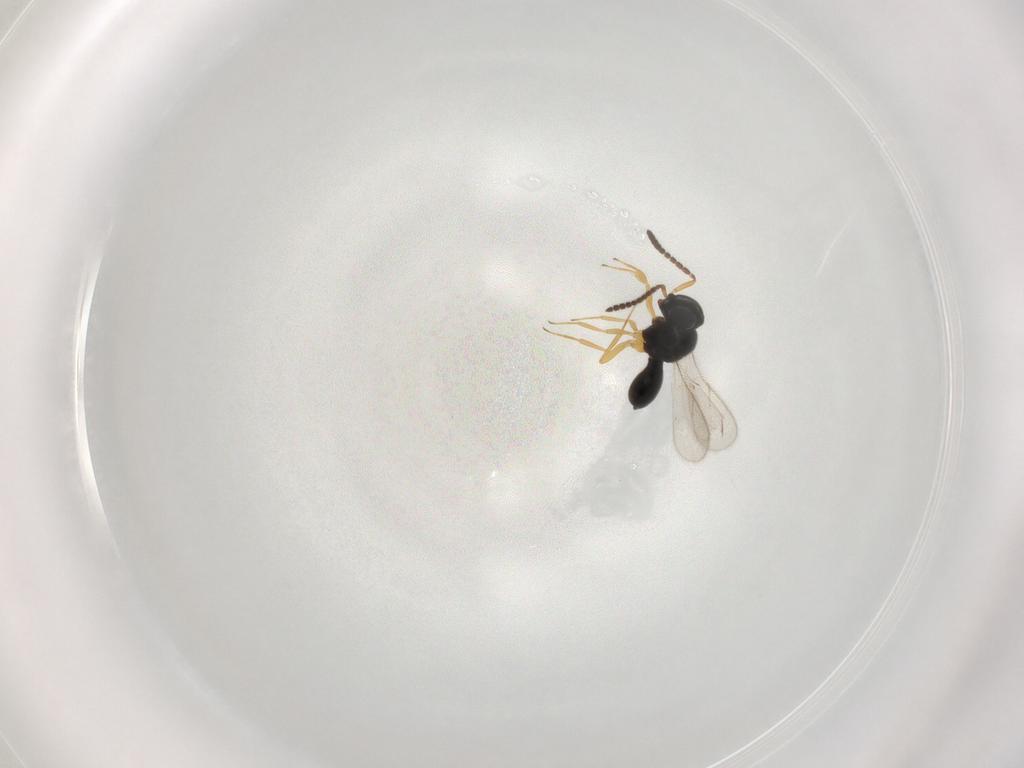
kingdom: Animalia
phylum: Arthropoda
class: Insecta
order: Hymenoptera
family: Scelionidae
